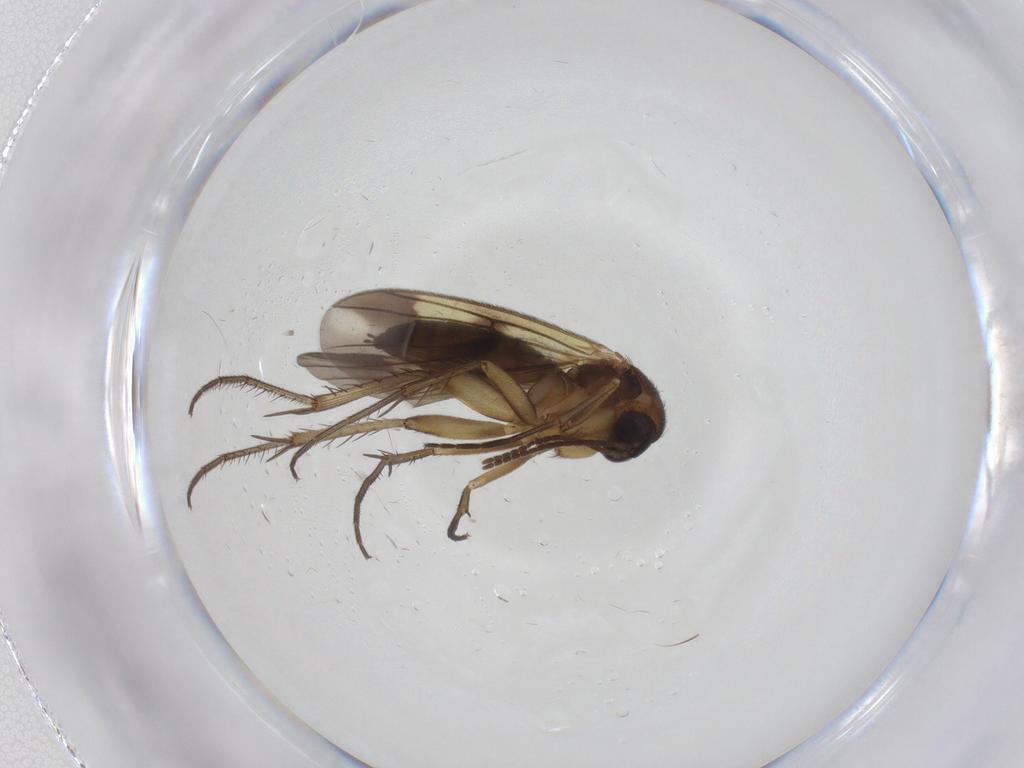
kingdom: Animalia
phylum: Arthropoda
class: Insecta
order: Diptera
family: Mycetophilidae
